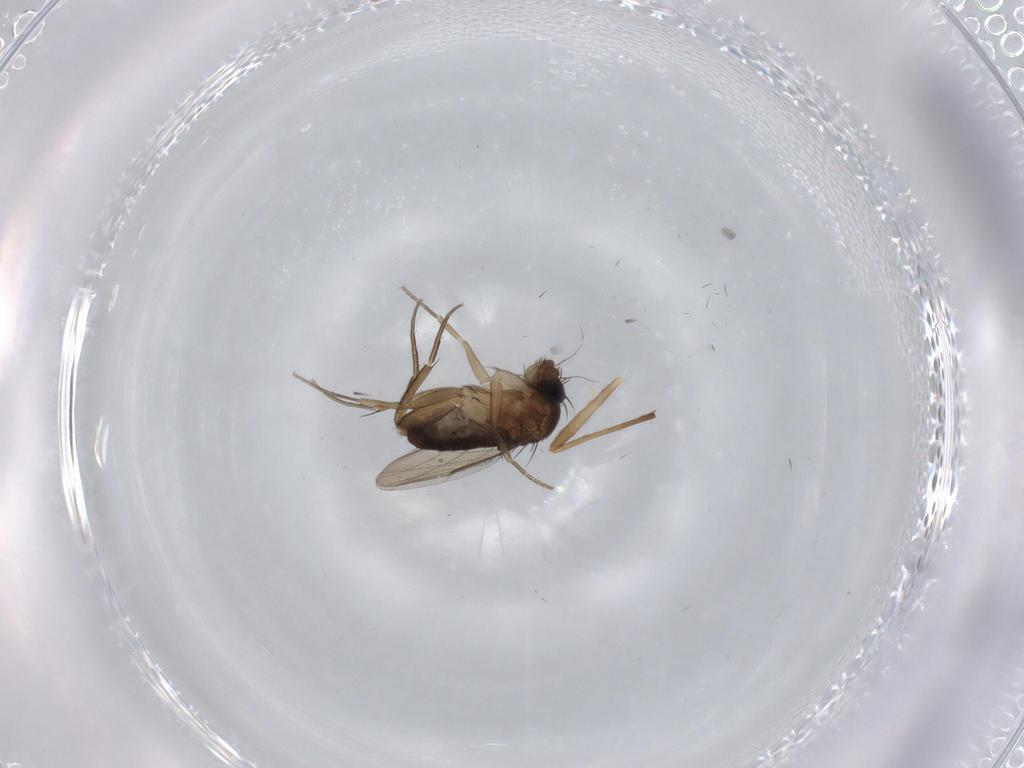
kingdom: Animalia
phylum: Arthropoda
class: Insecta
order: Diptera
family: Phoridae
